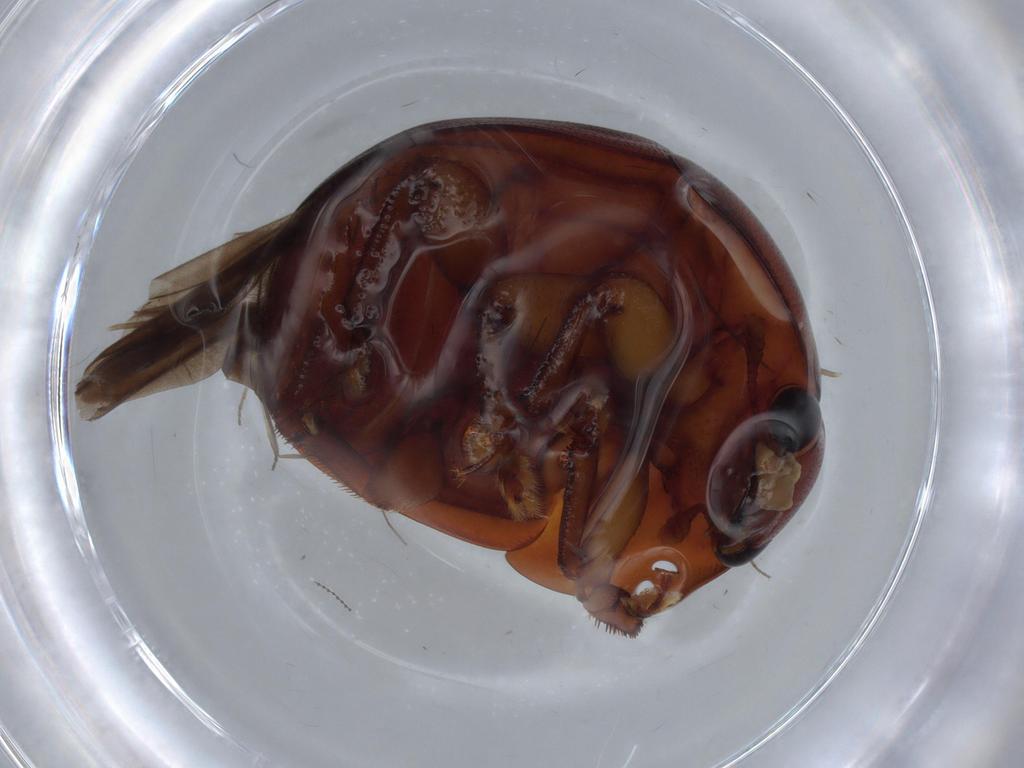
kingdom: Animalia
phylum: Arthropoda
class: Insecta
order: Coleoptera
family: Nitidulidae
